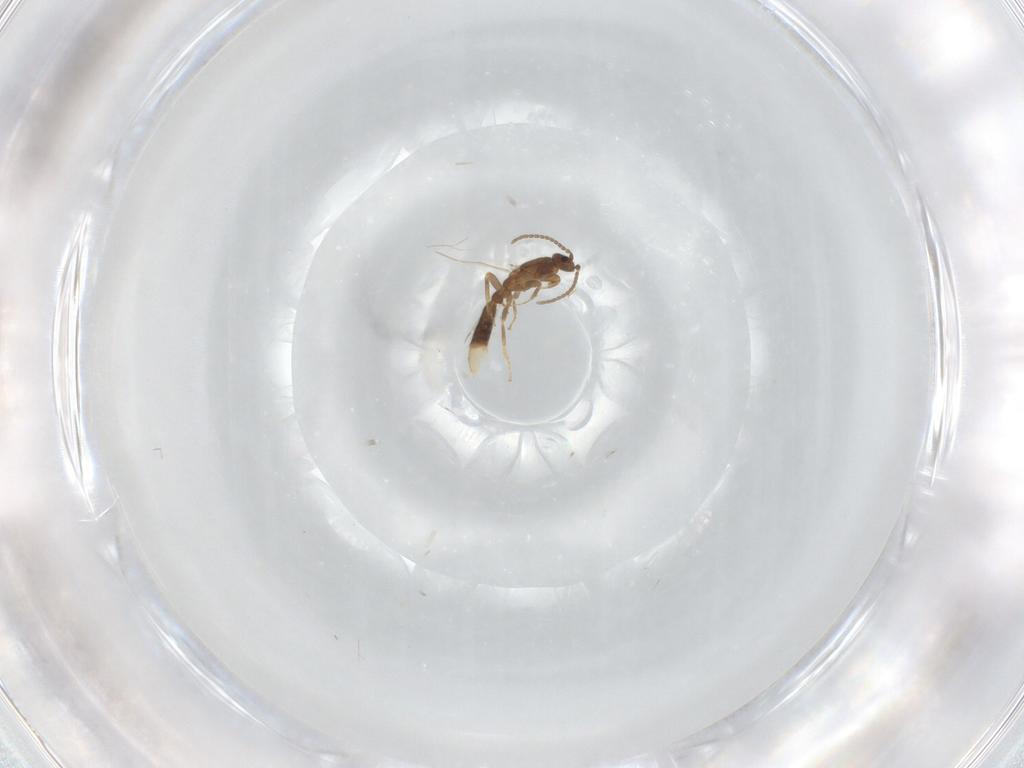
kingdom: Animalia
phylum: Arthropoda
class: Insecta
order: Hymenoptera
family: Formicidae
